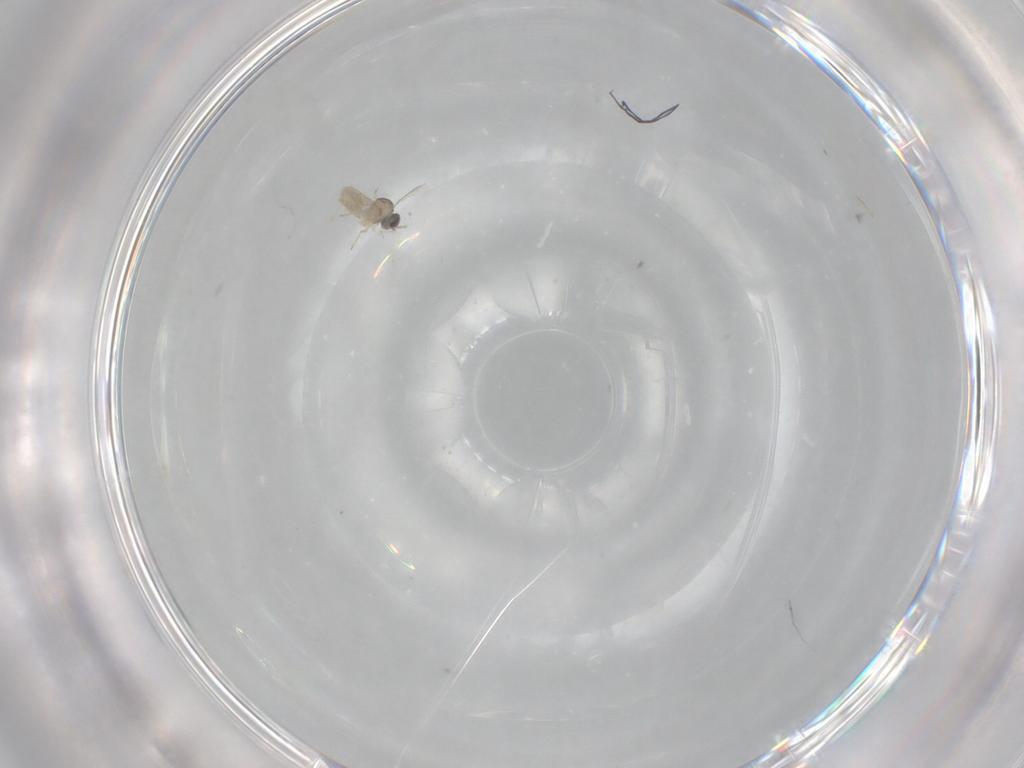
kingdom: Animalia
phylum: Arthropoda
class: Insecta
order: Diptera
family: Cecidomyiidae
